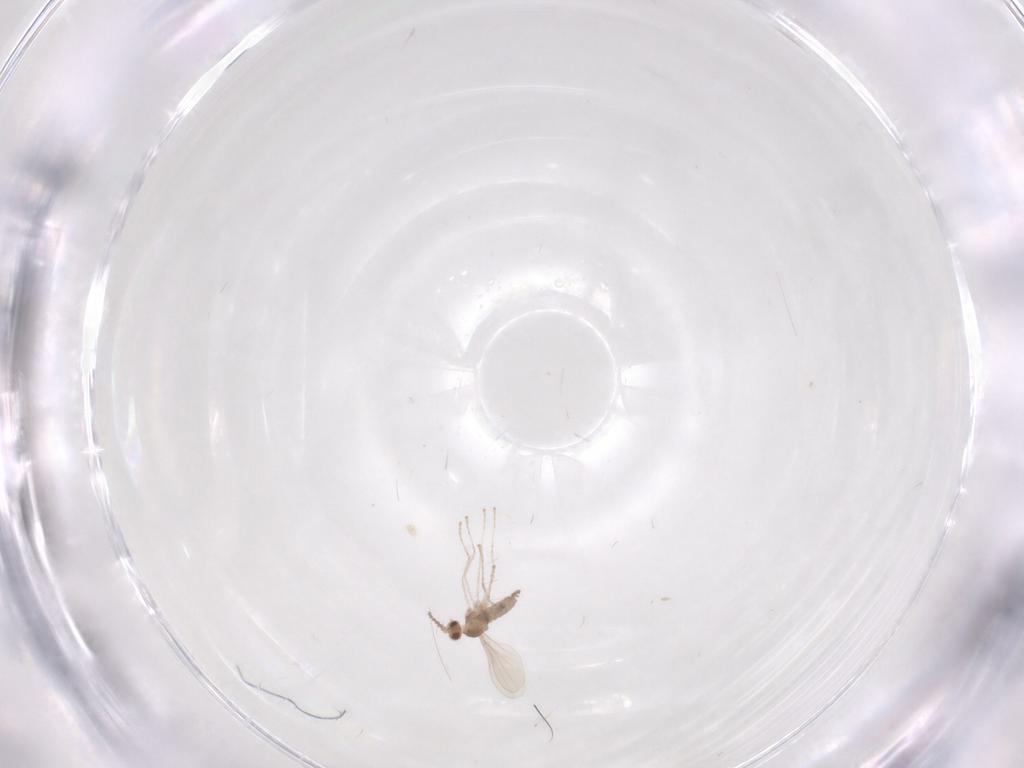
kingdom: Animalia
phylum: Arthropoda
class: Insecta
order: Diptera
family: Cecidomyiidae
